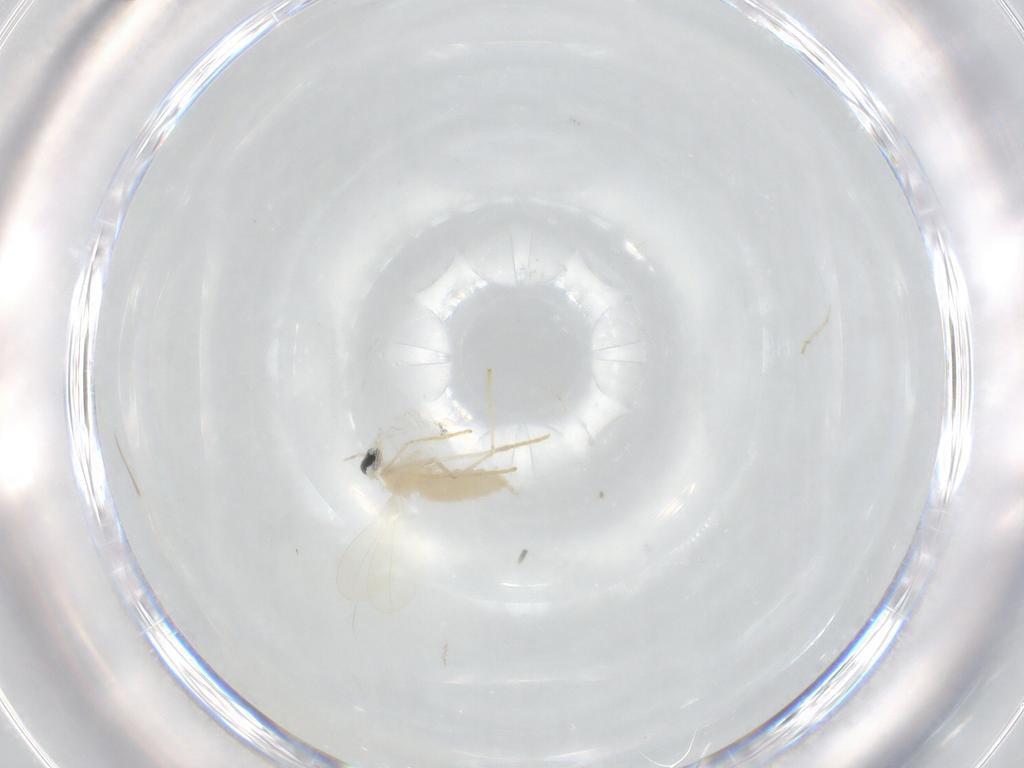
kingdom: Animalia
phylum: Arthropoda
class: Insecta
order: Diptera
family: Cecidomyiidae
